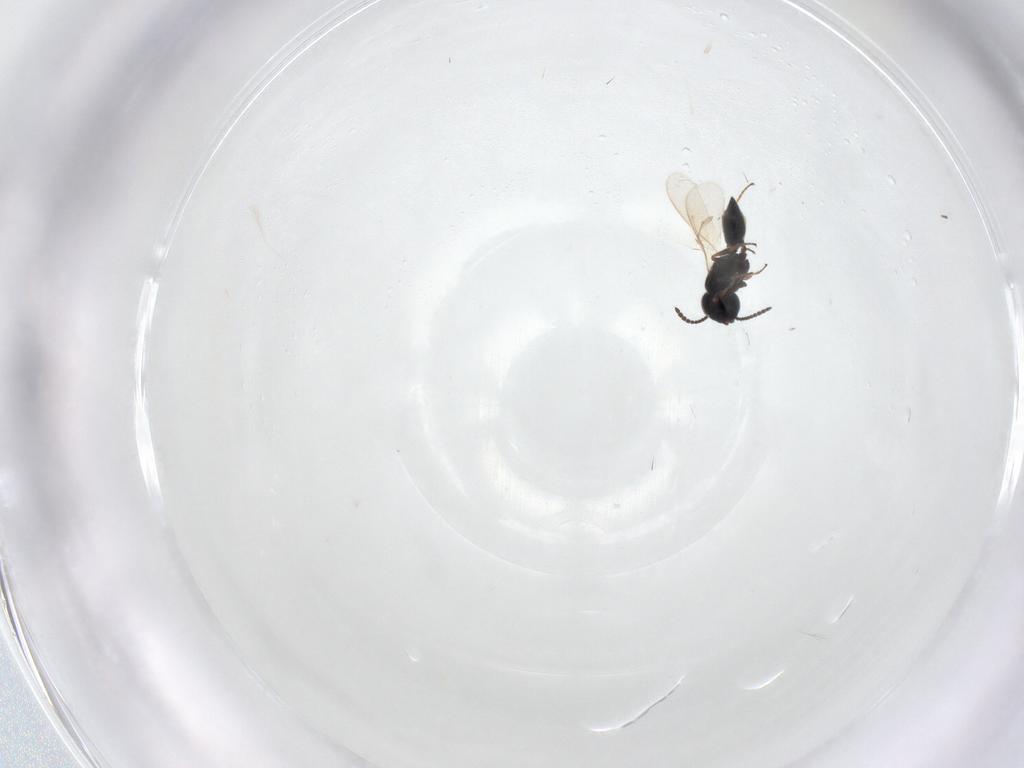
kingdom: Animalia
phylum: Arthropoda
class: Insecta
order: Hymenoptera
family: Scelionidae
